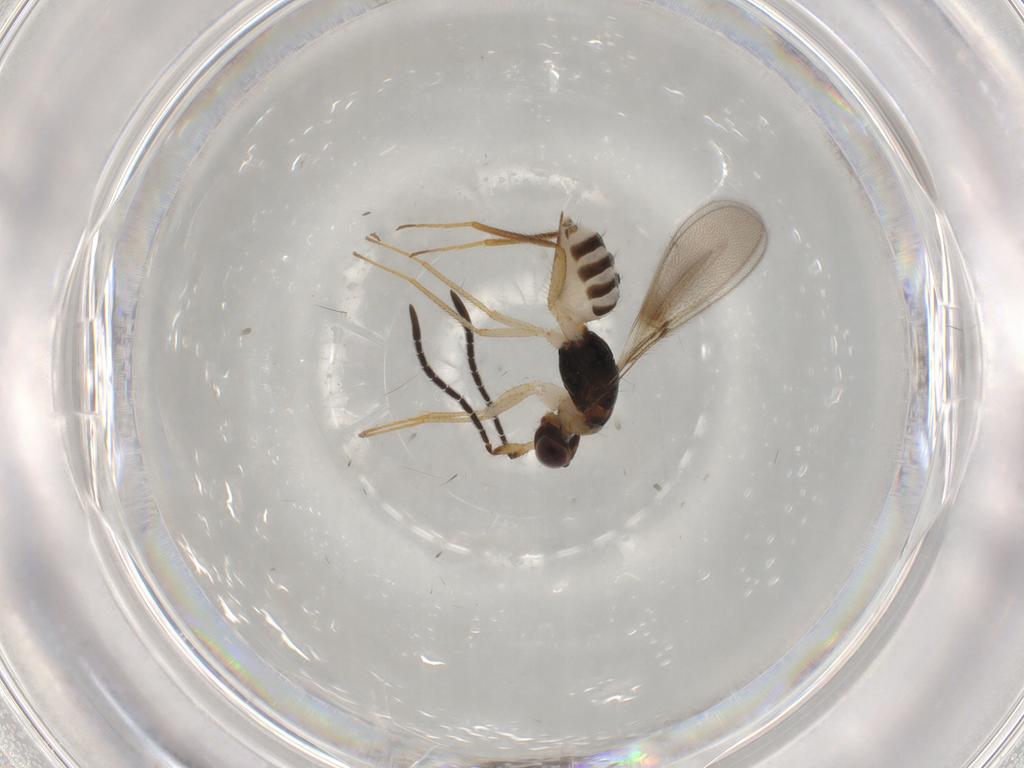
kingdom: Animalia
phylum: Arthropoda
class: Insecta
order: Hymenoptera
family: Mymaridae
